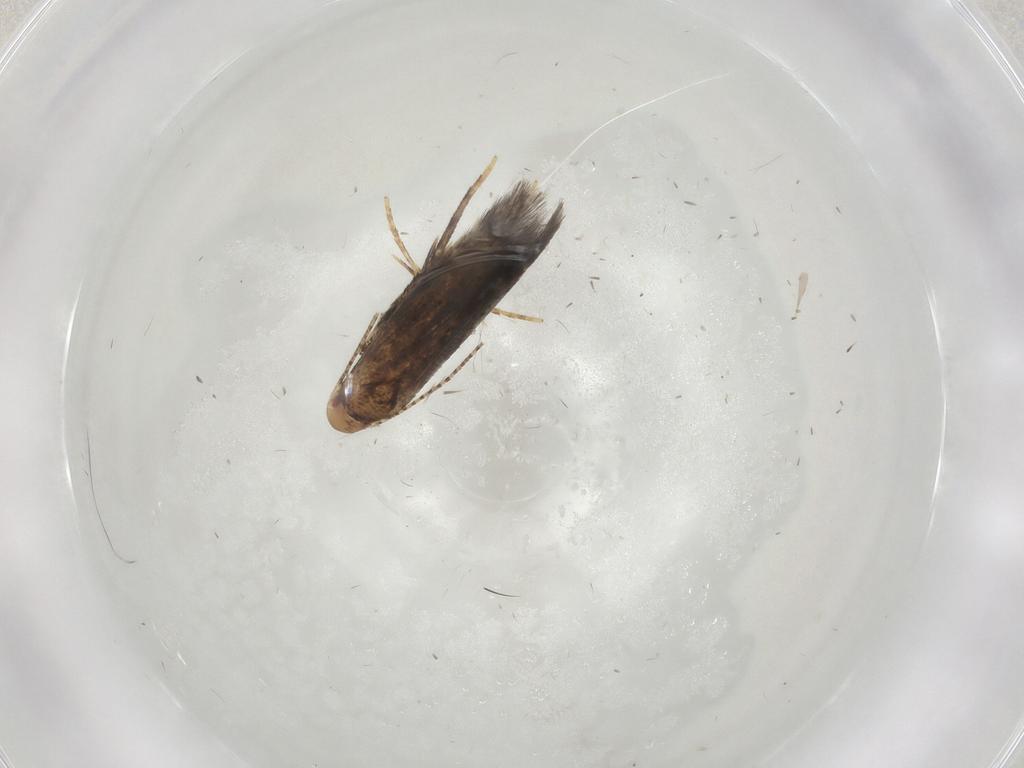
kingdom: Animalia
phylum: Arthropoda
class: Insecta
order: Lepidoptera
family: Momphidae
